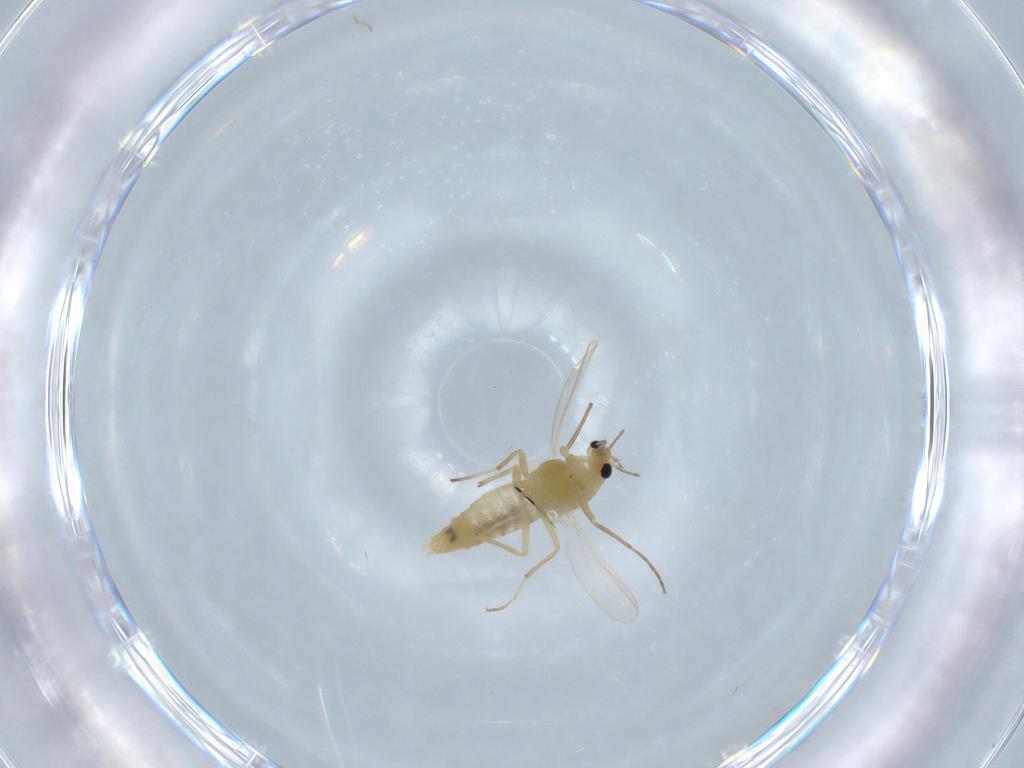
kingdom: Animalia
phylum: Arthropoda
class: Insecta
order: Diptera
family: Chironomidae
